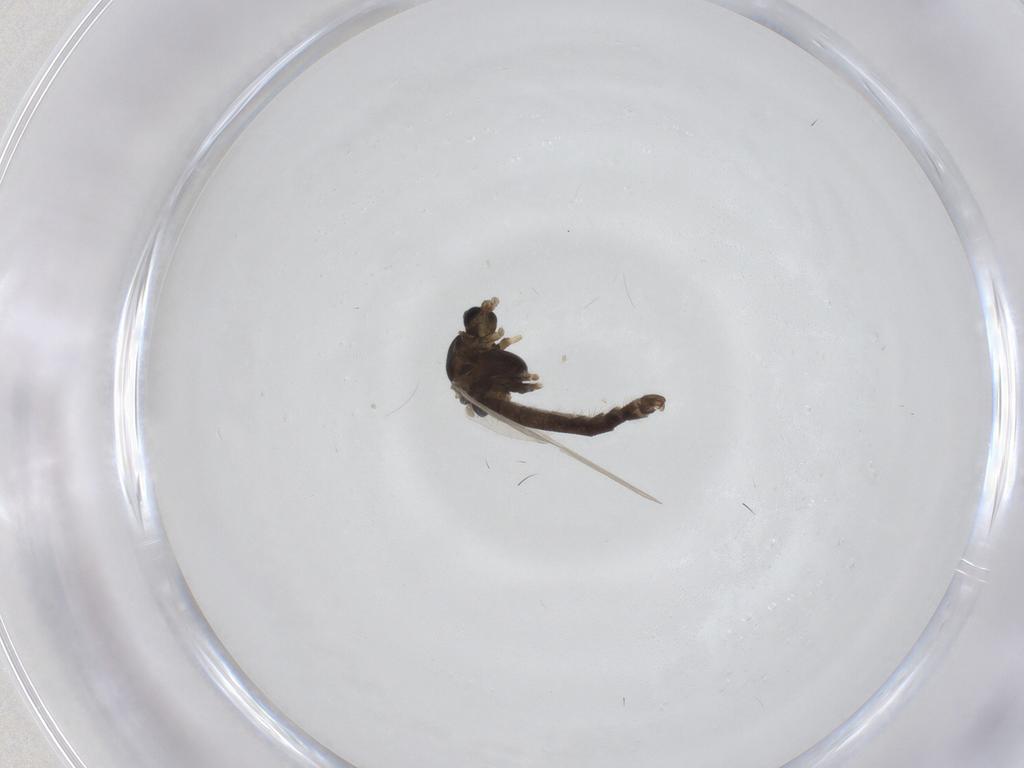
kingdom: Animalia
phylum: Arthropoda
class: Insecta
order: Diptera
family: Chironomidae
